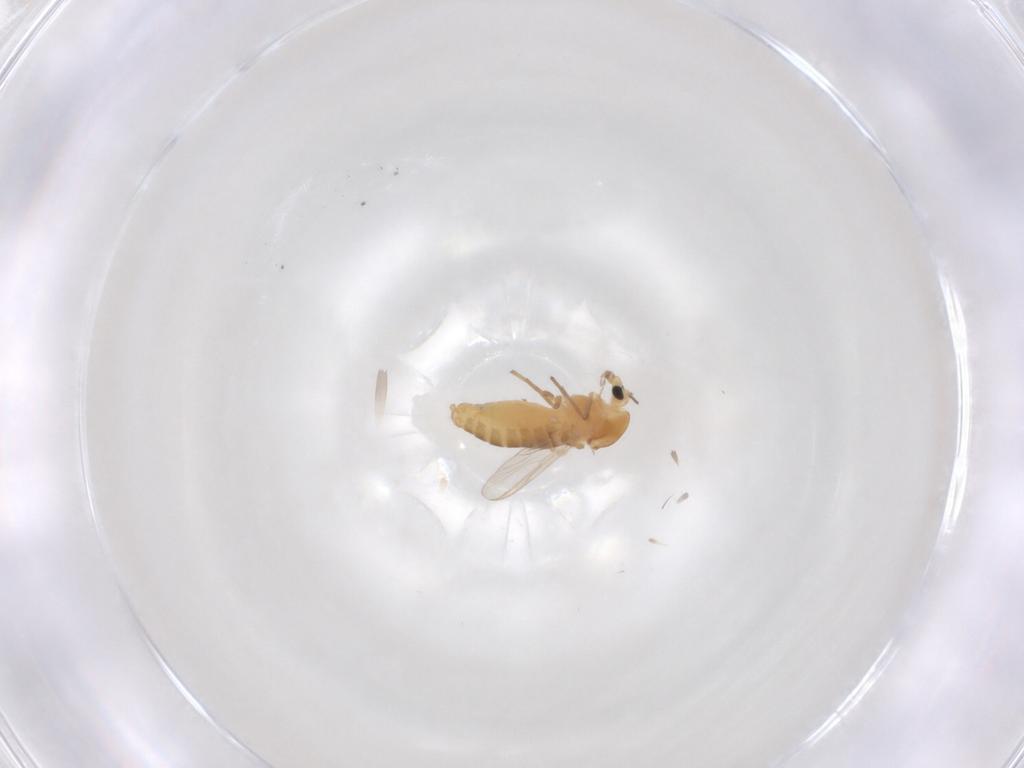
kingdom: Animalia
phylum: Arthropoda
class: Insecta
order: Diptera
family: Chironomidae
